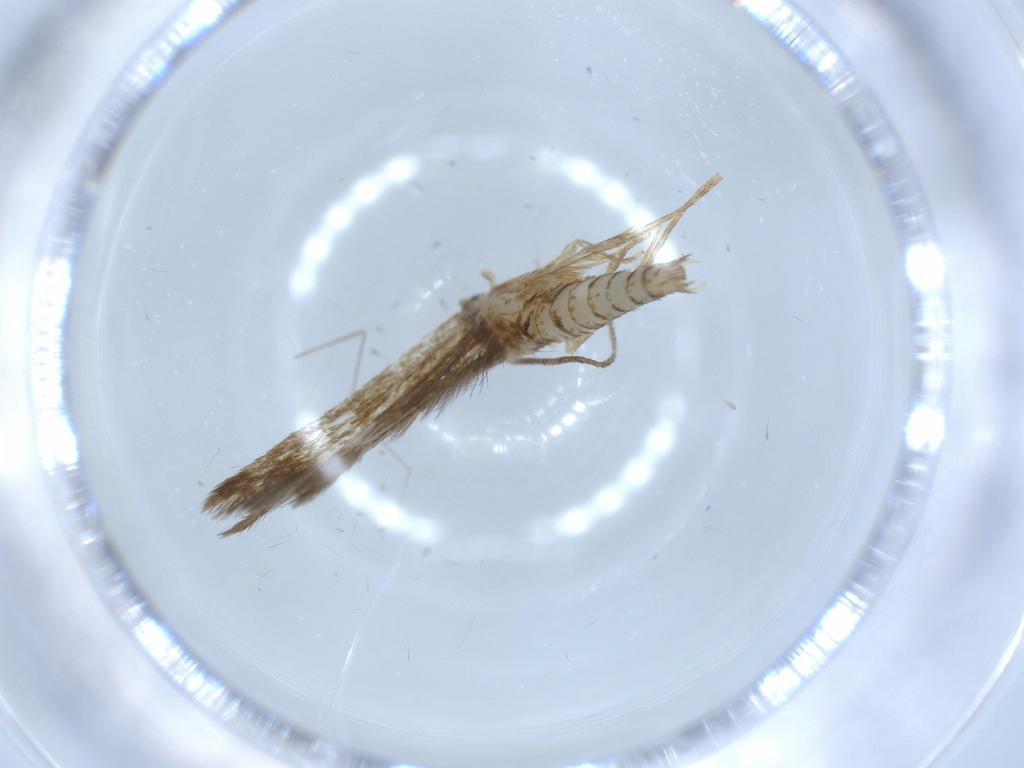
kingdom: Animalia
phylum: Arthropoda
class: Insecta
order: Lepidoptera
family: Tineidae
